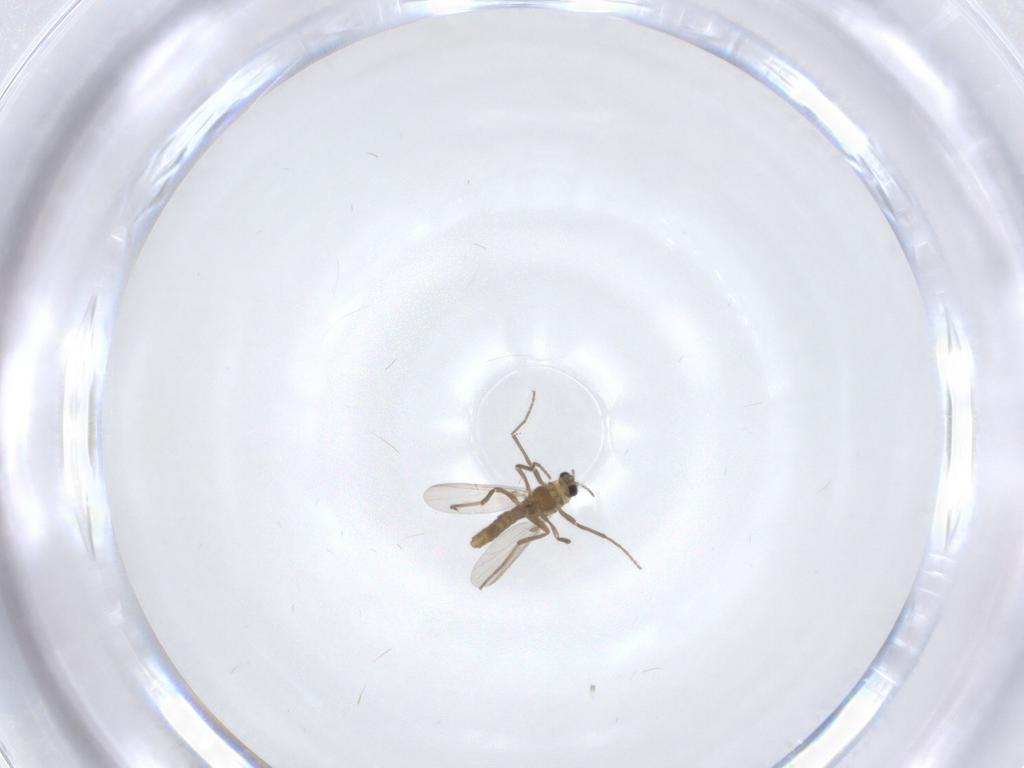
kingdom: Animalia
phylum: Arthropoda
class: Insecta
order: Diptera
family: Chironomidae
